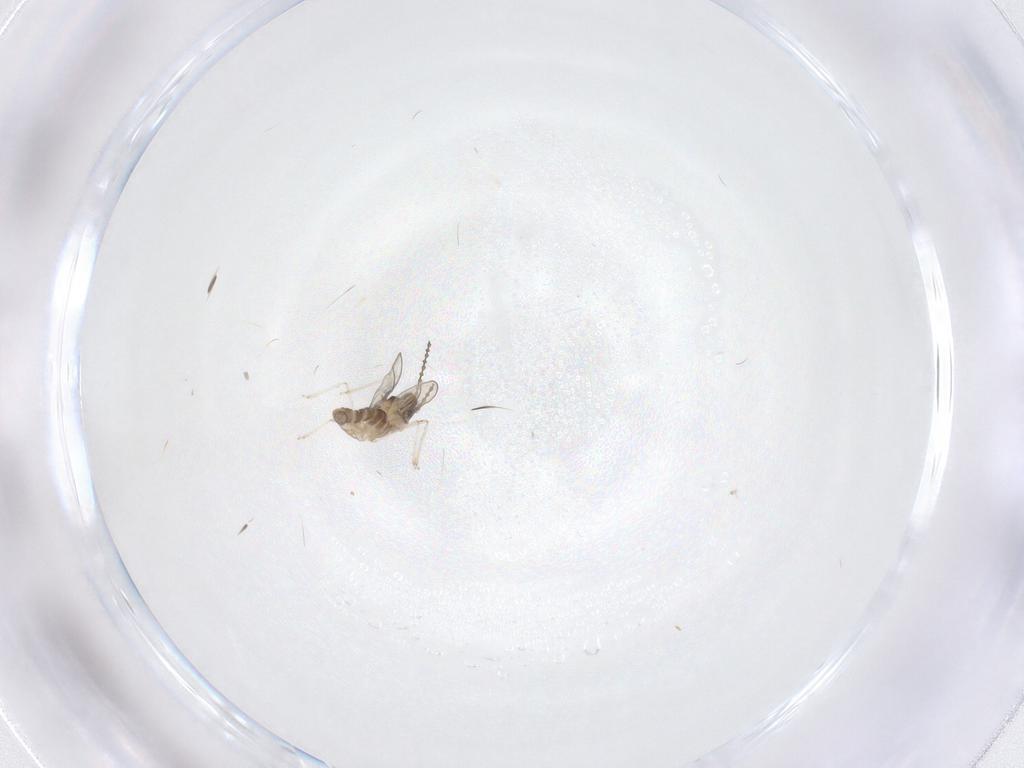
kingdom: Animalia
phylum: Arthropoda
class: Insecta
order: Diptera
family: Cecidomyiidae
